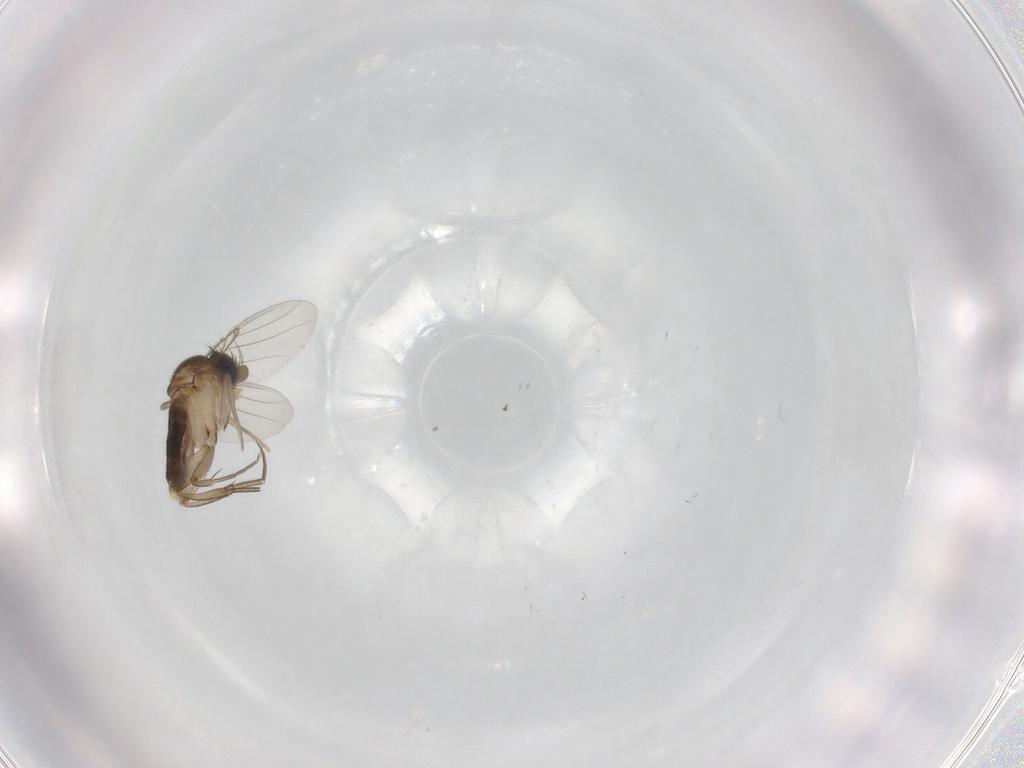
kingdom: Animalia
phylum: Arthropoda
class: Insecta
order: Diptera
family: Phoridae
